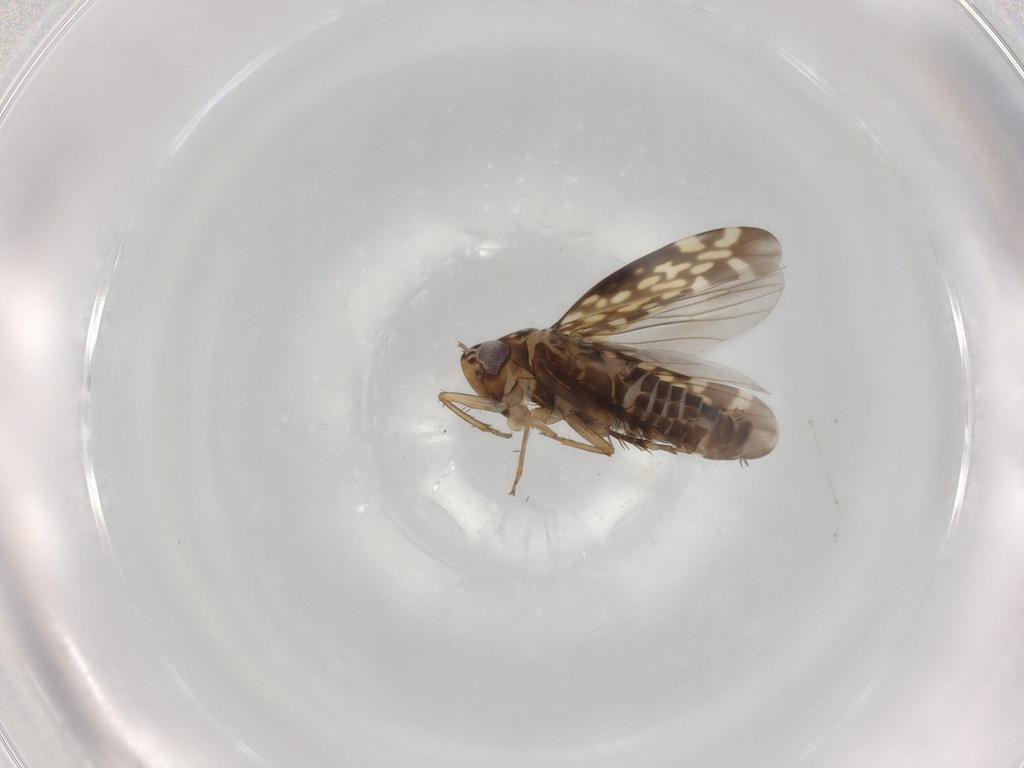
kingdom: Animalia
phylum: Arthropoda
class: Insecta
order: Hemiptera
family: Cicadellidae
